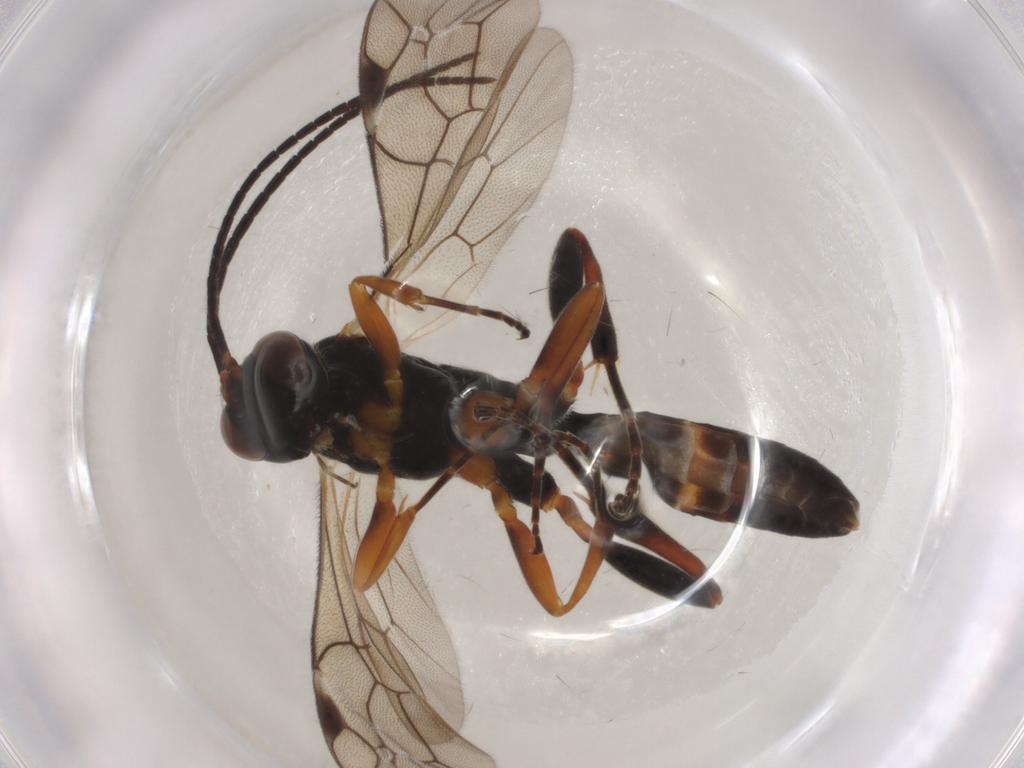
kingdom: Animalia
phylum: Arthropoda
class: Insecta
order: Hymenoptera
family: Ichneumonidae
